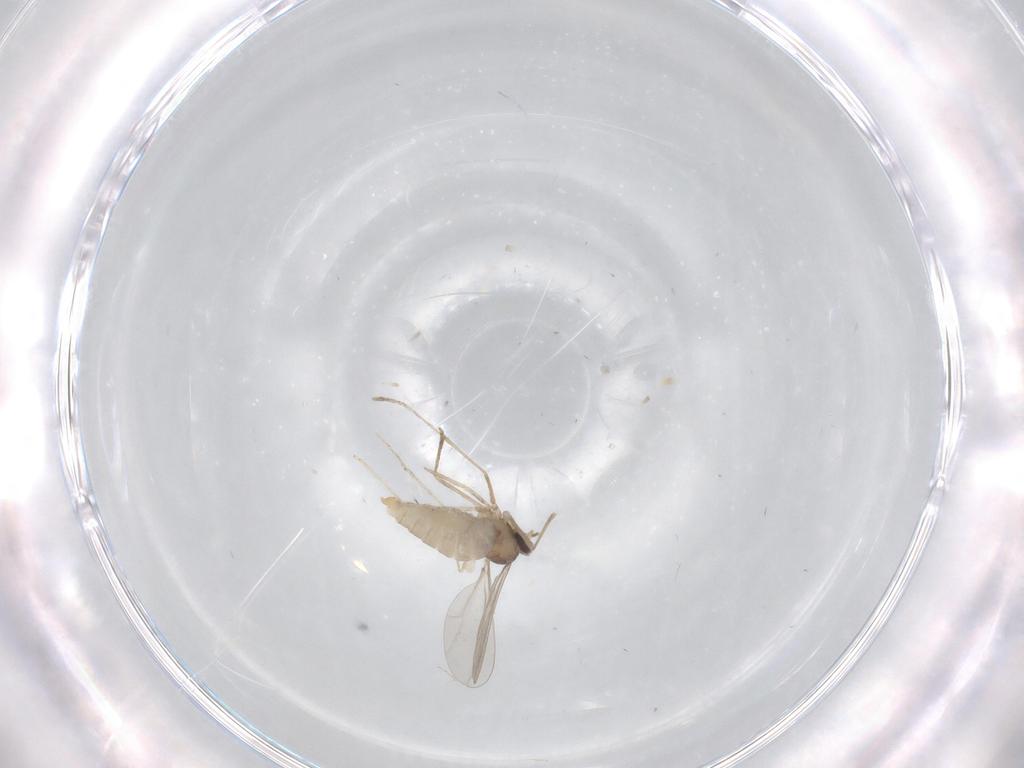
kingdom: Animalia
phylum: Arthropoda
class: Insecta
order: Diptera
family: Cecidomyiidae
